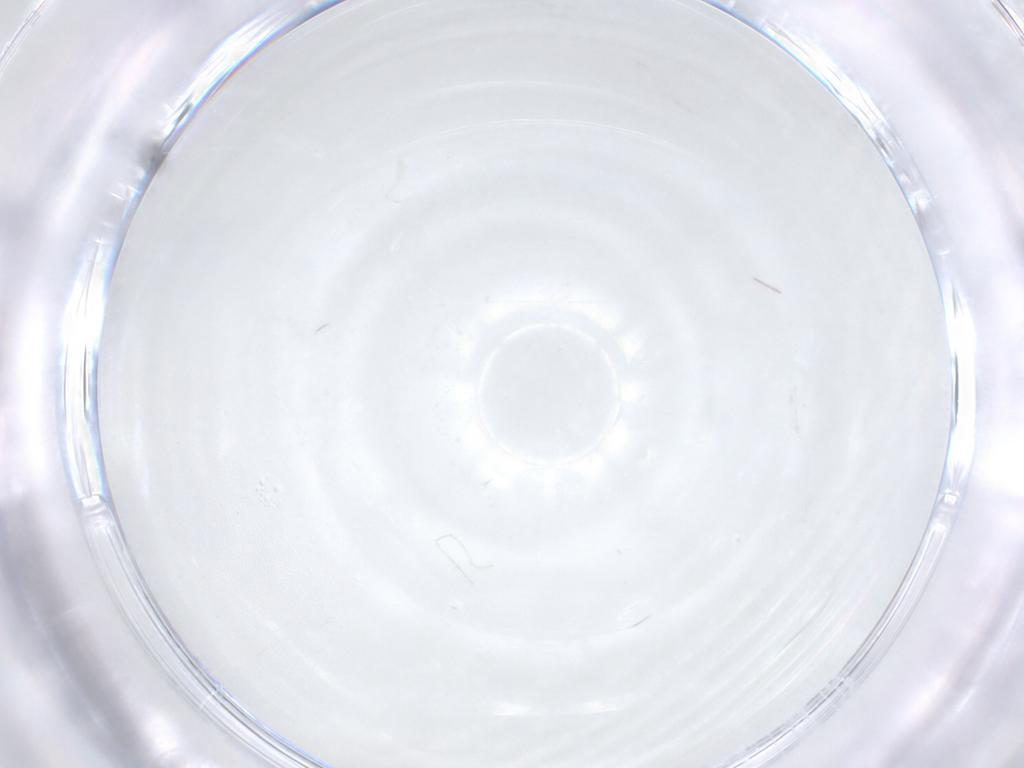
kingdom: Animalia
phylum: Arthropoda
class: Insecta
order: Diptera
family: Sciaridae
